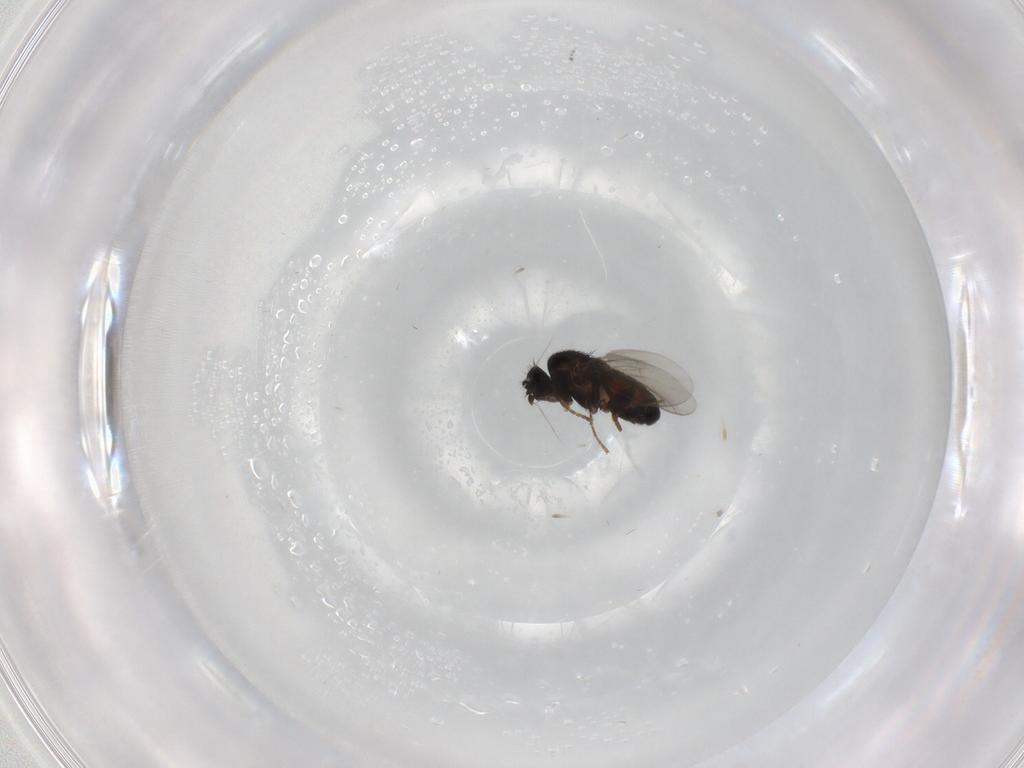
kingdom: Animalia
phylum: Arthropoda
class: Insecta
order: Diptera
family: Sphaeroceridae
